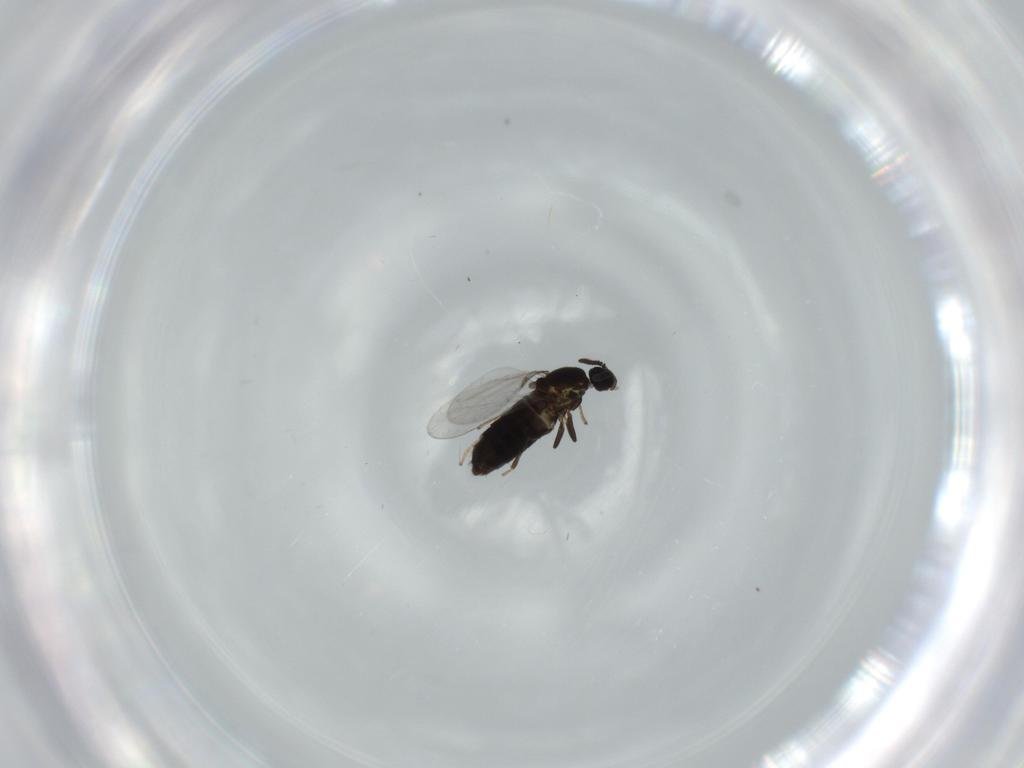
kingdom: Animalia
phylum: Arthropoda
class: Insecta
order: Diptera
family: Scatopsidae
